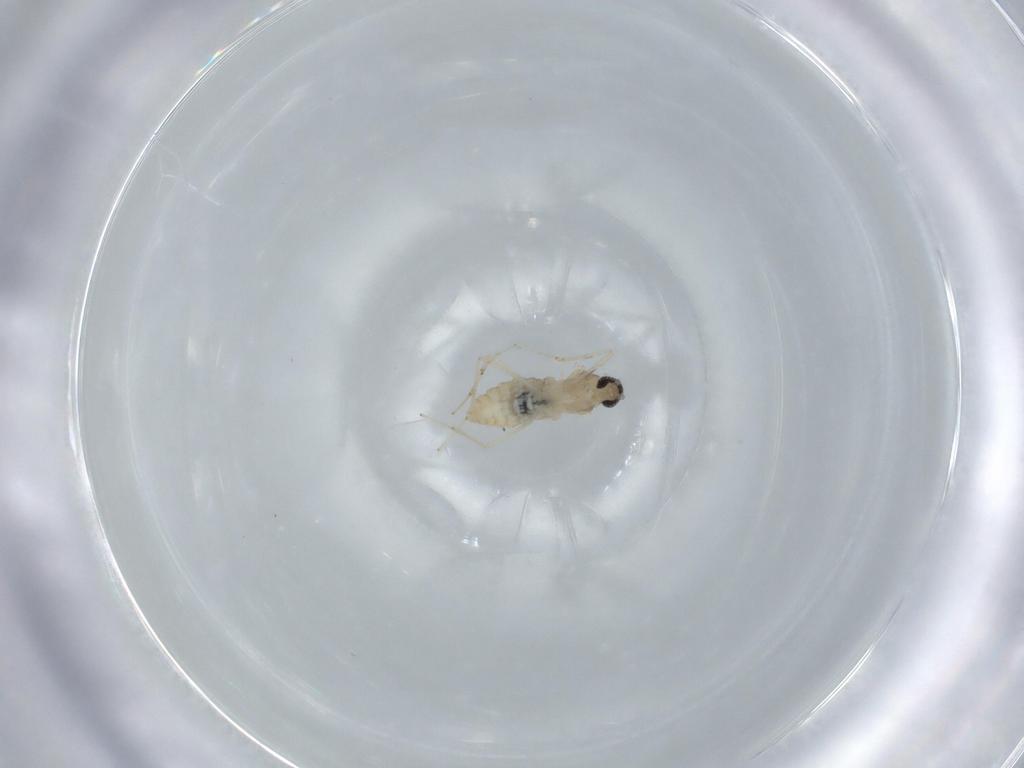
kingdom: Animalia
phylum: Arthropoda
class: Insecta
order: Diptera
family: Cecidomyiidae
